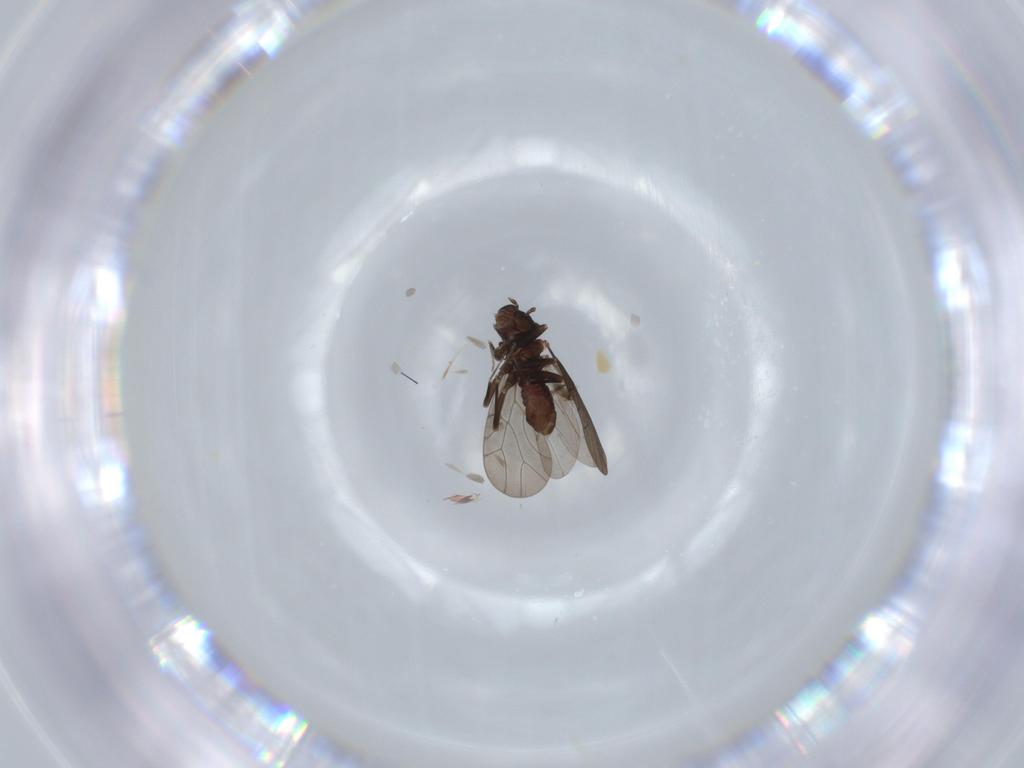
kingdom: Animalia
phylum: Arthropoda
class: Insecta
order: Psocodea
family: Lepidopsocidae
